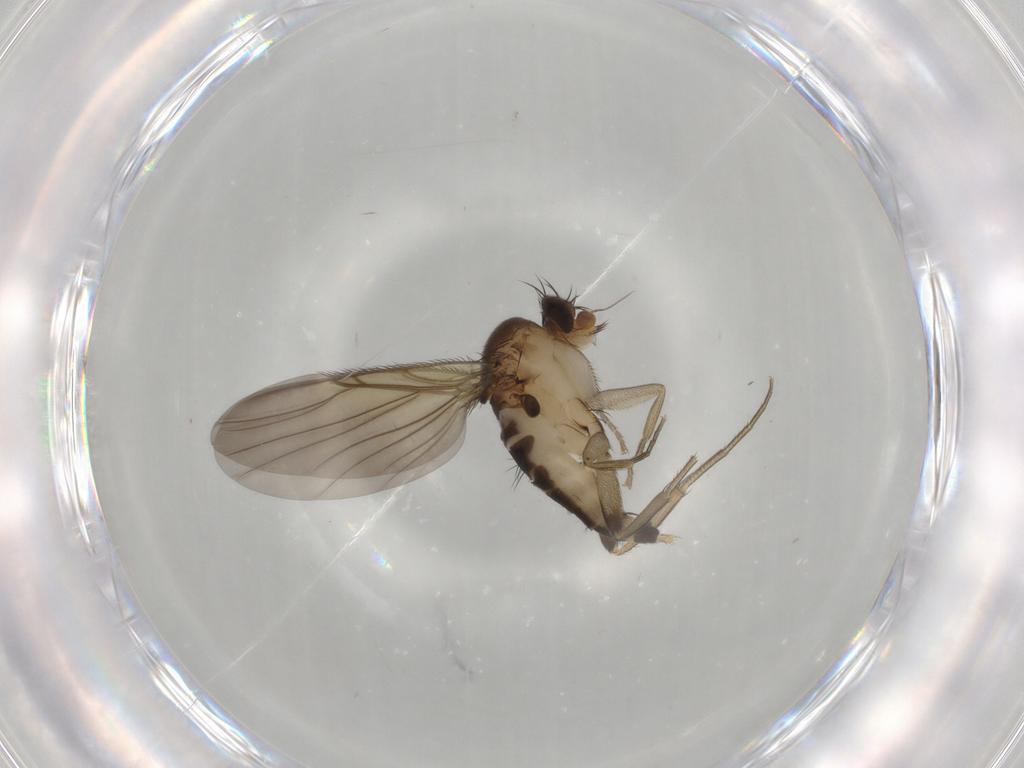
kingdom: Animalia
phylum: Arthropoda
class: Insecta
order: Diptera
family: Phoridae
